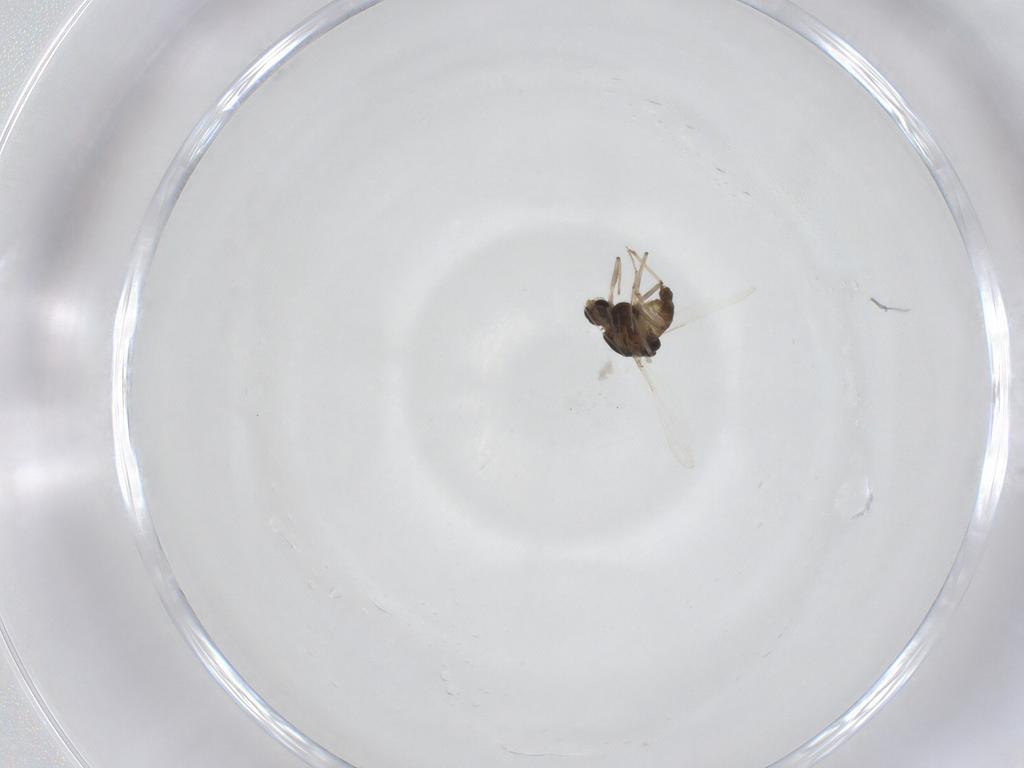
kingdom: Animalia
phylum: Arthropoda
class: Insecta
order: Diptera
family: Chironomidae
